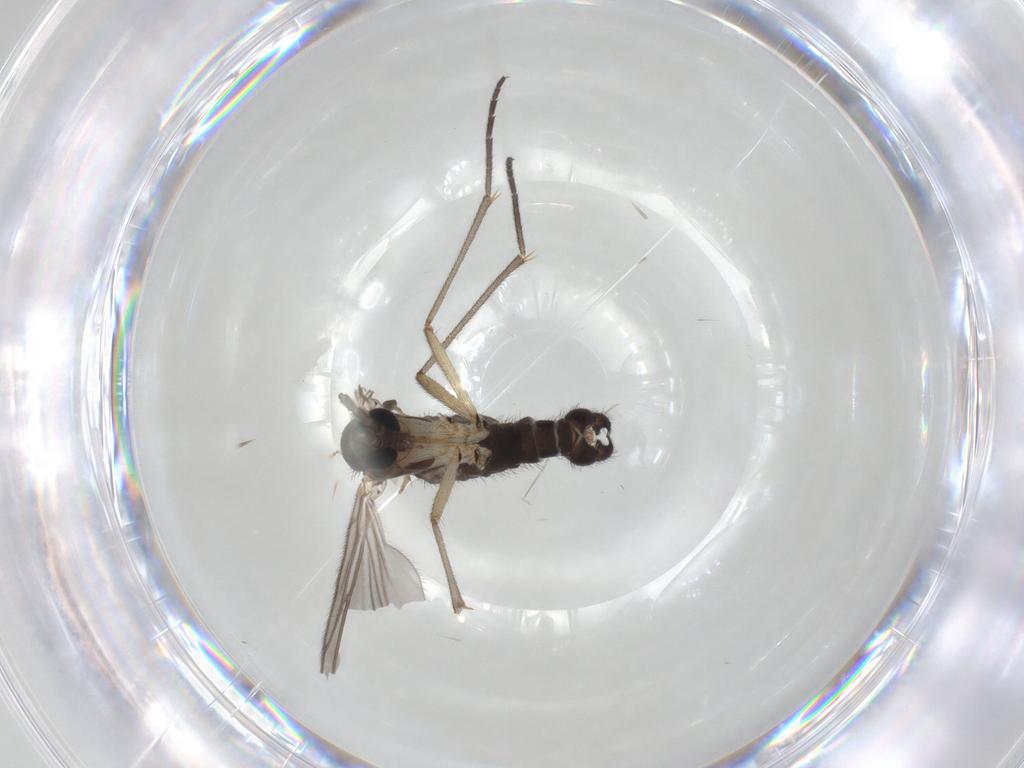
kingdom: Animalia
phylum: Arthropoda
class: Insecta
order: Diptera
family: Sciaridae
